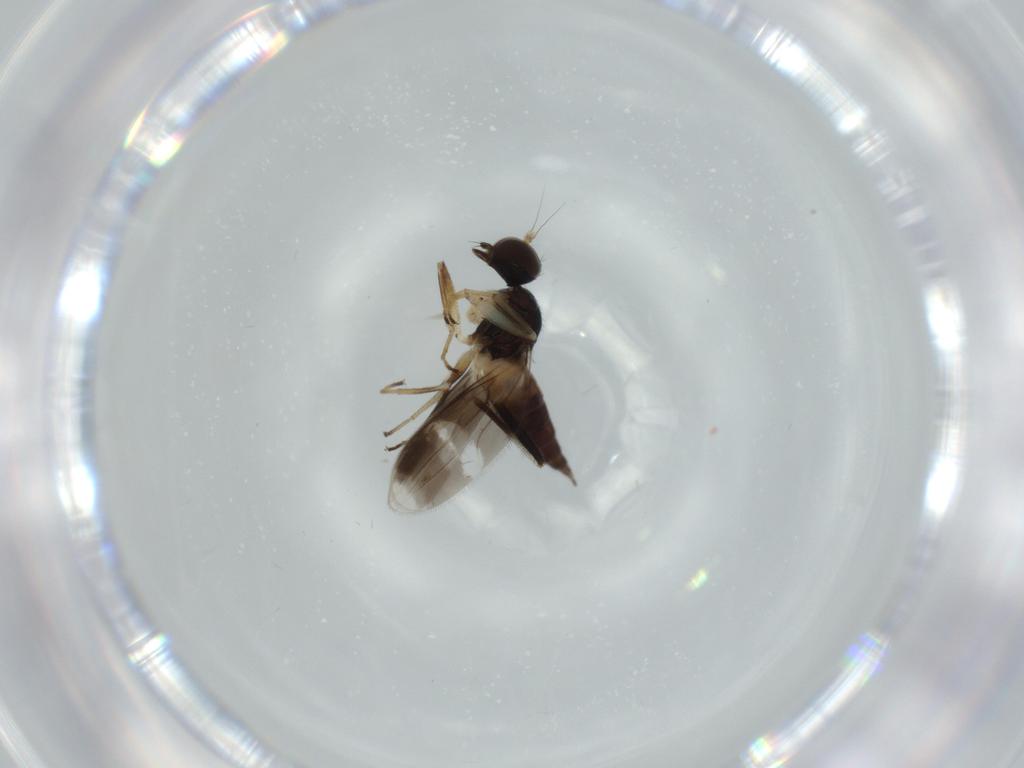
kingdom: Animalia
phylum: Arthropoda
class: Insecta
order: Diptera
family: Hybotidae
